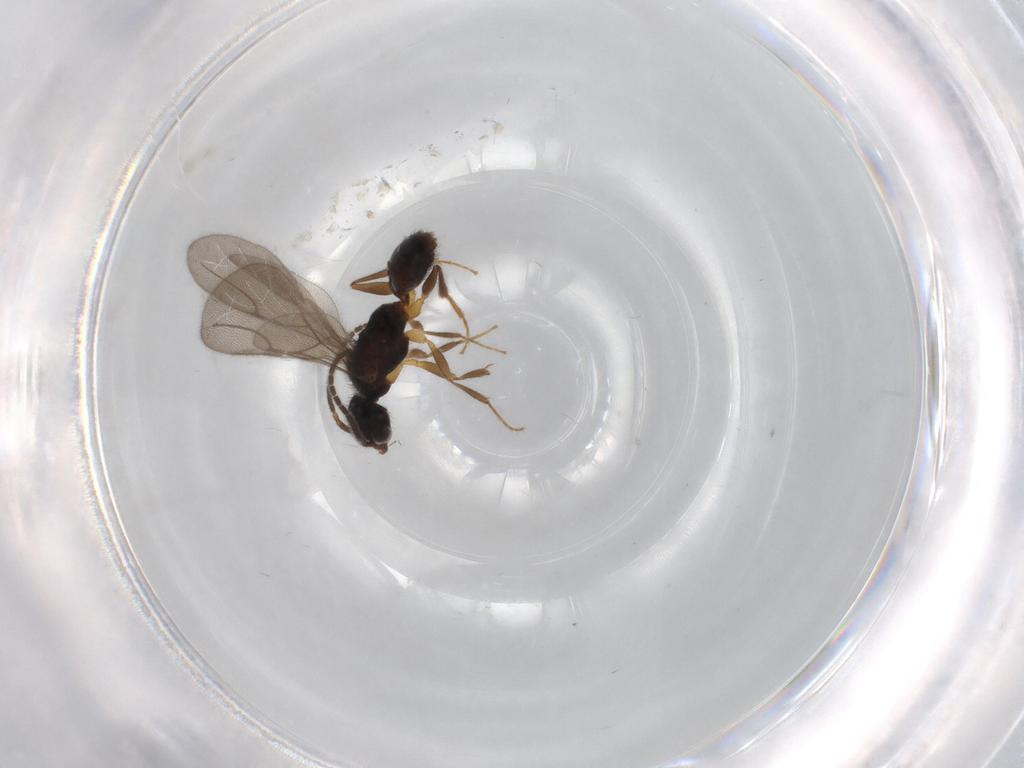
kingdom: Animalia
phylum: Arthropoda
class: Insecta
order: Hymenoptera
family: Bethylidae
